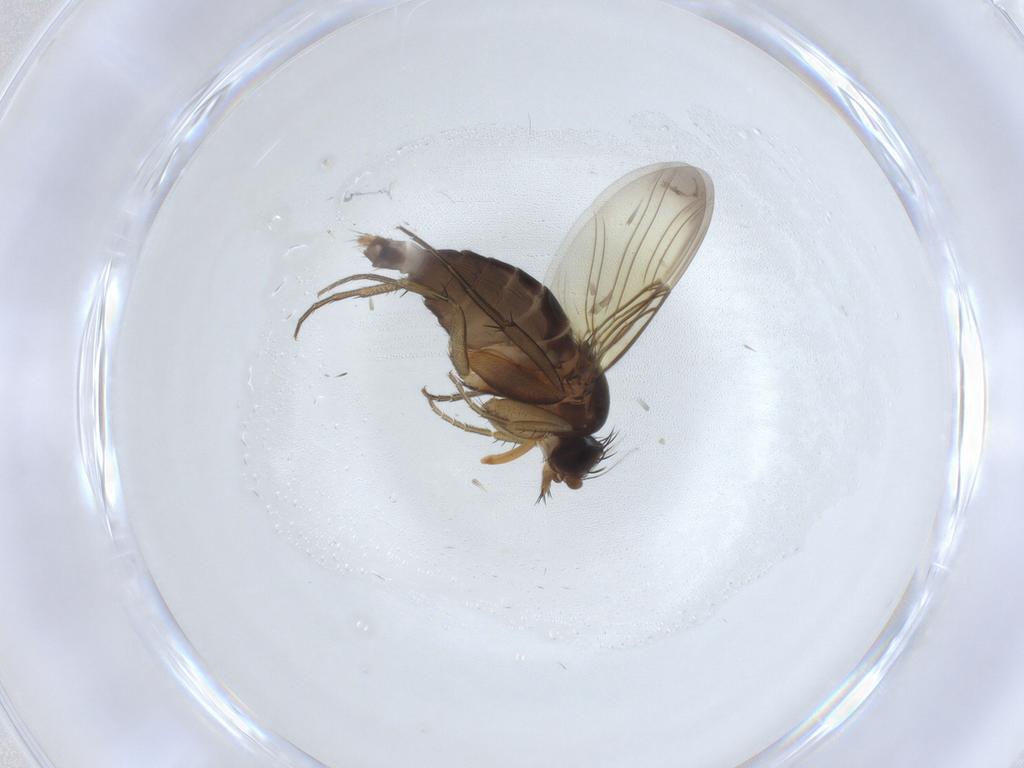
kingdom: Animalia
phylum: Arthropoda
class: Insecta
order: Diptera
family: Phoridae
